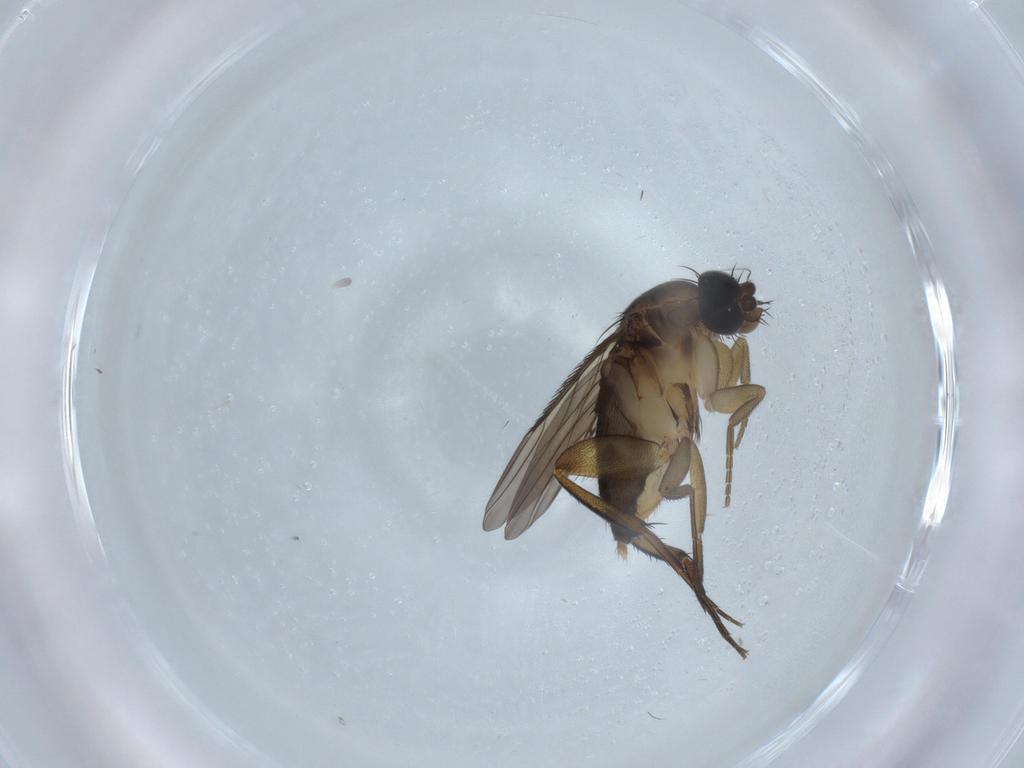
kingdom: Animalia
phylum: Arthropoda
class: Insecta
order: Diptera
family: Phoridae
